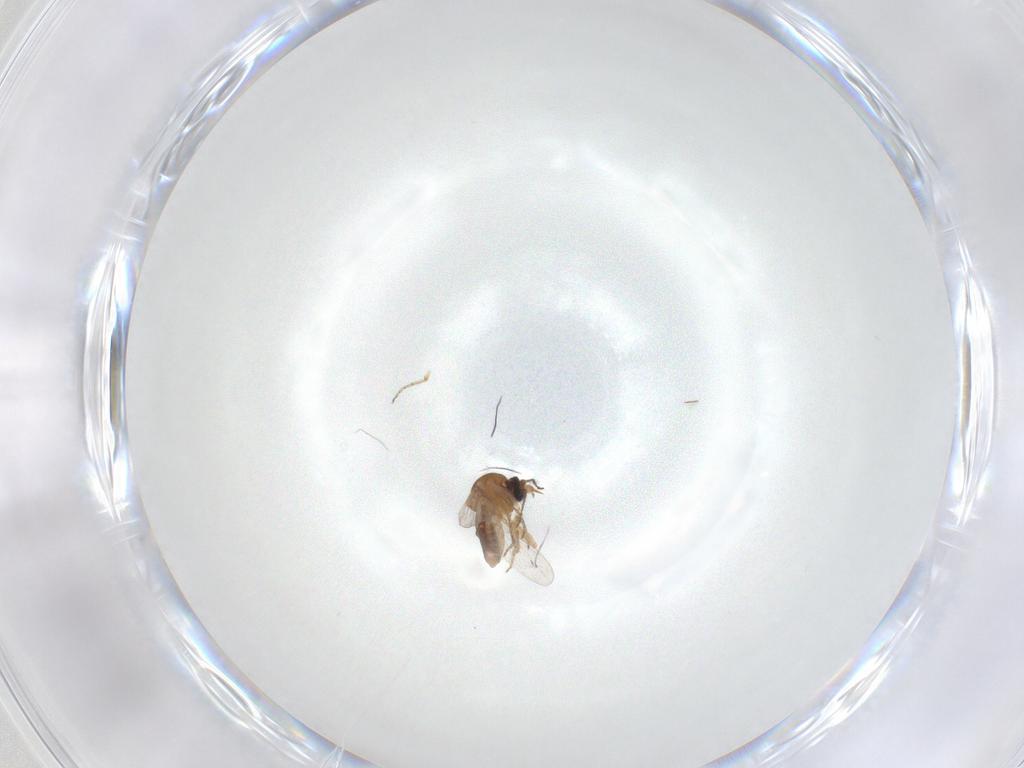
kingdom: Animalia
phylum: Arthropoda
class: Insecta
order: Diptera
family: Ceratopogonidae
